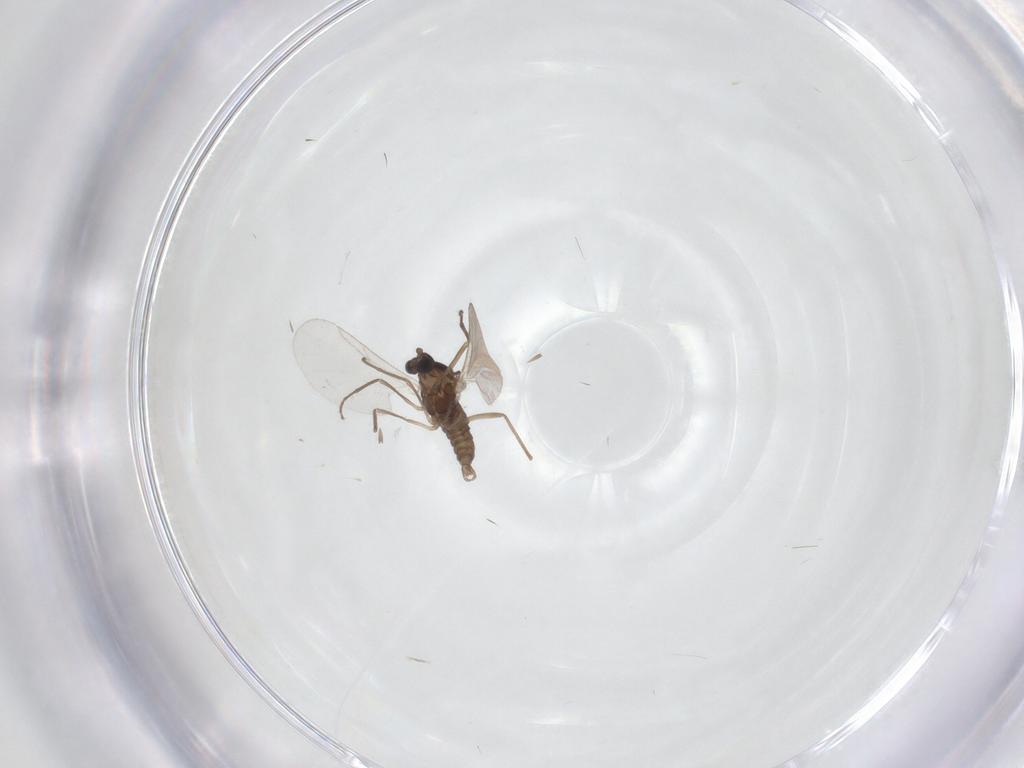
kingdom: Animalia
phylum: Arthropoda
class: Insecta
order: Diptera
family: Cecidomyiidae
